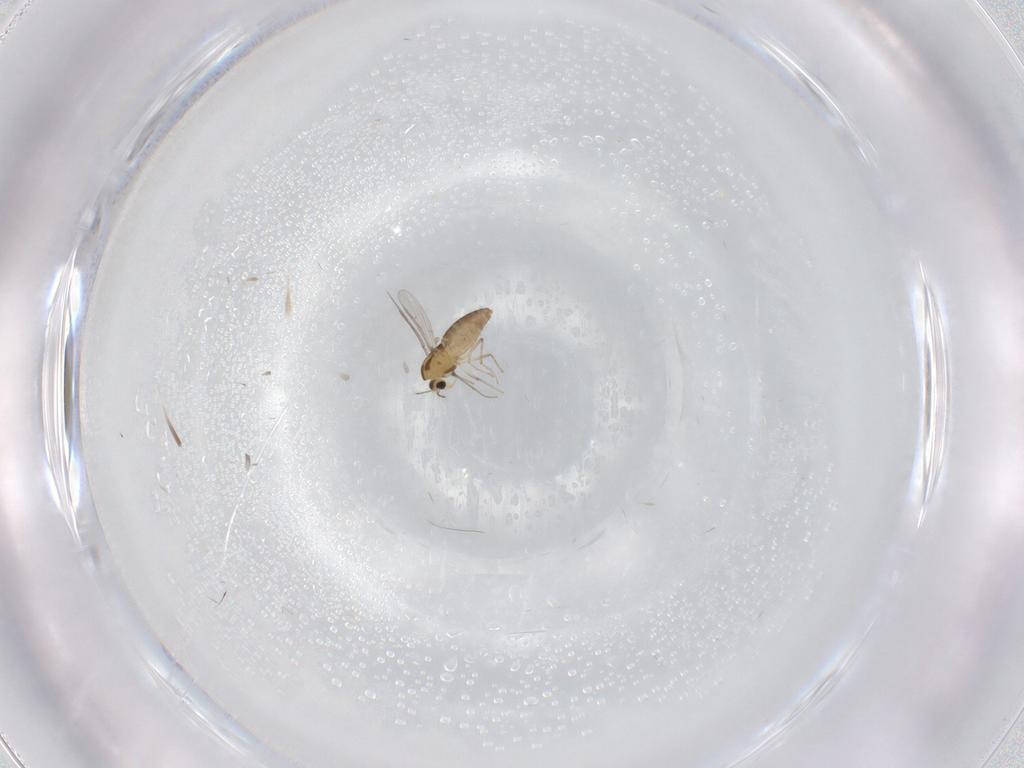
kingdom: Animalia
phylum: Arthropoda
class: Insecta
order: Diptera
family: Chironomidae
